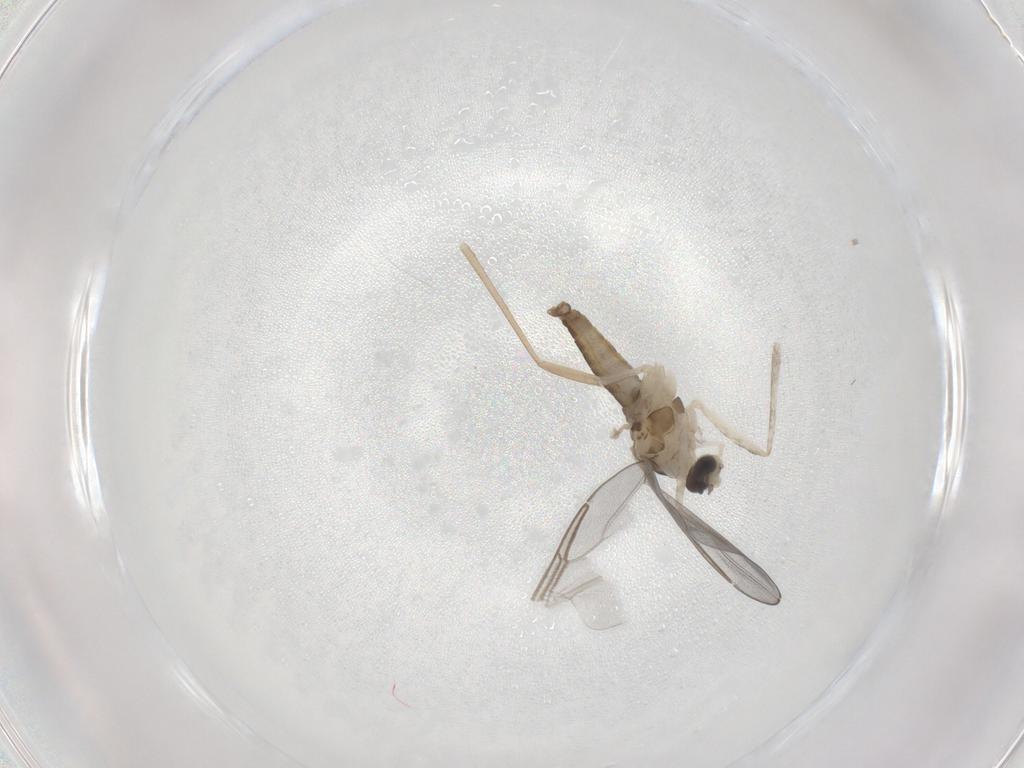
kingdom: Animalia
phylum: Arthropoda
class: Insecta
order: Diptera
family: Cecidomyiidae
